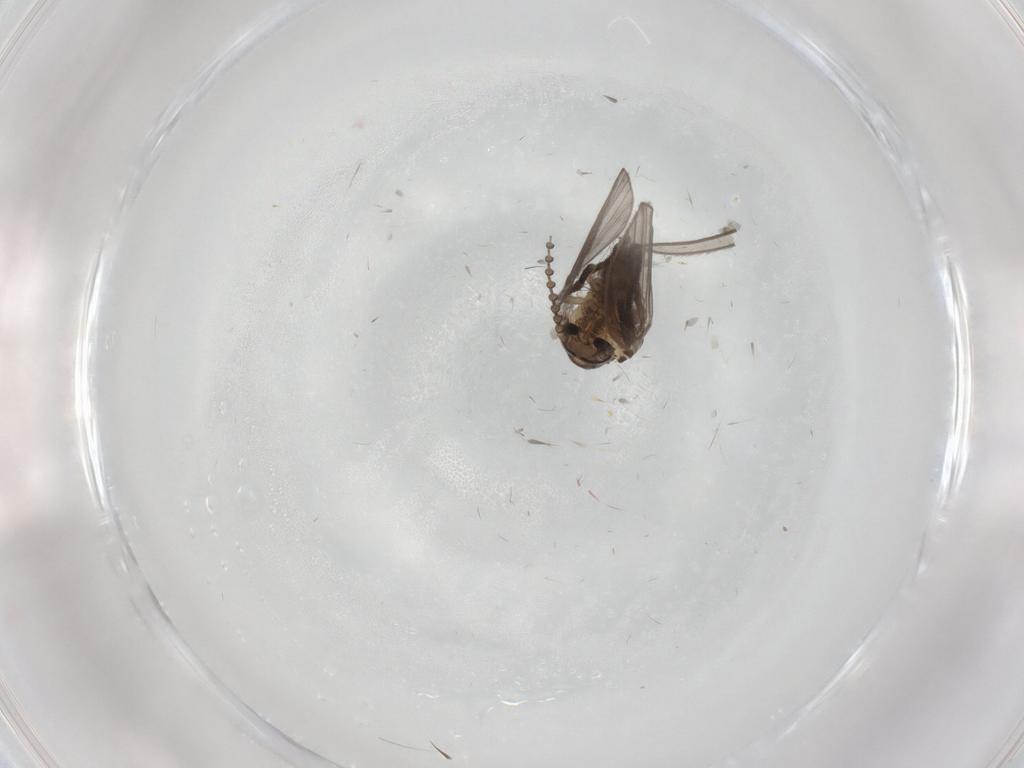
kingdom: Animalia
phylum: Arthropoda
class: Insecta
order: Diptera
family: Psychodidae
